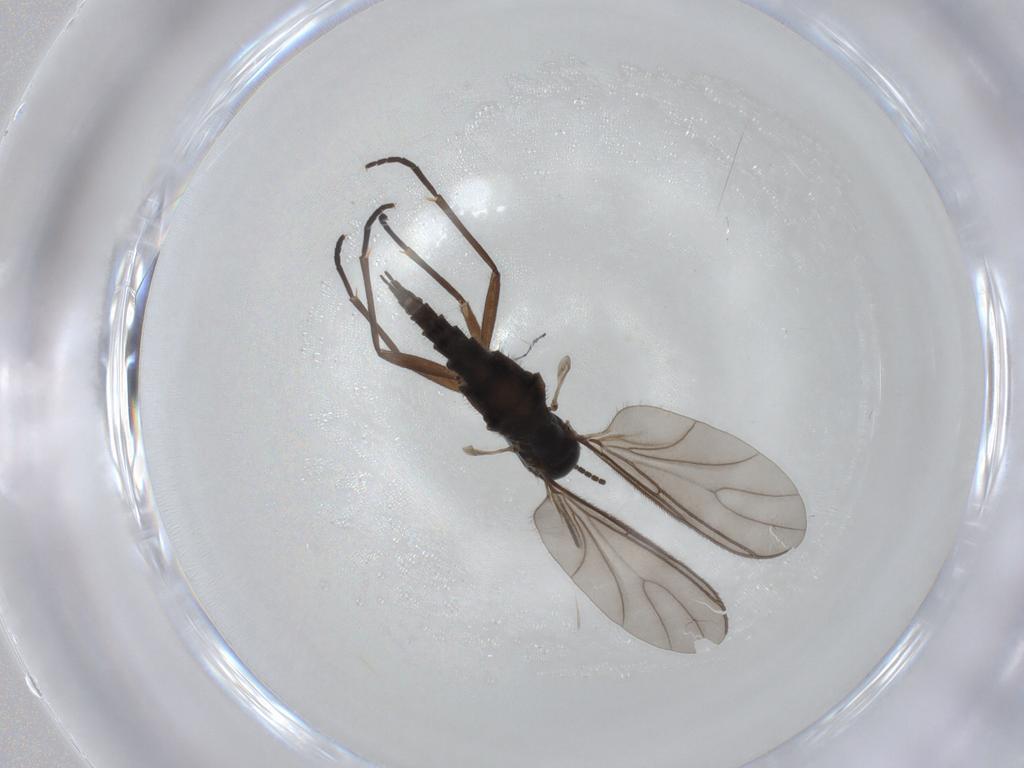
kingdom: Animalia
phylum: Arthropoda
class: Insecta
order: Diptera
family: Sciaridae
